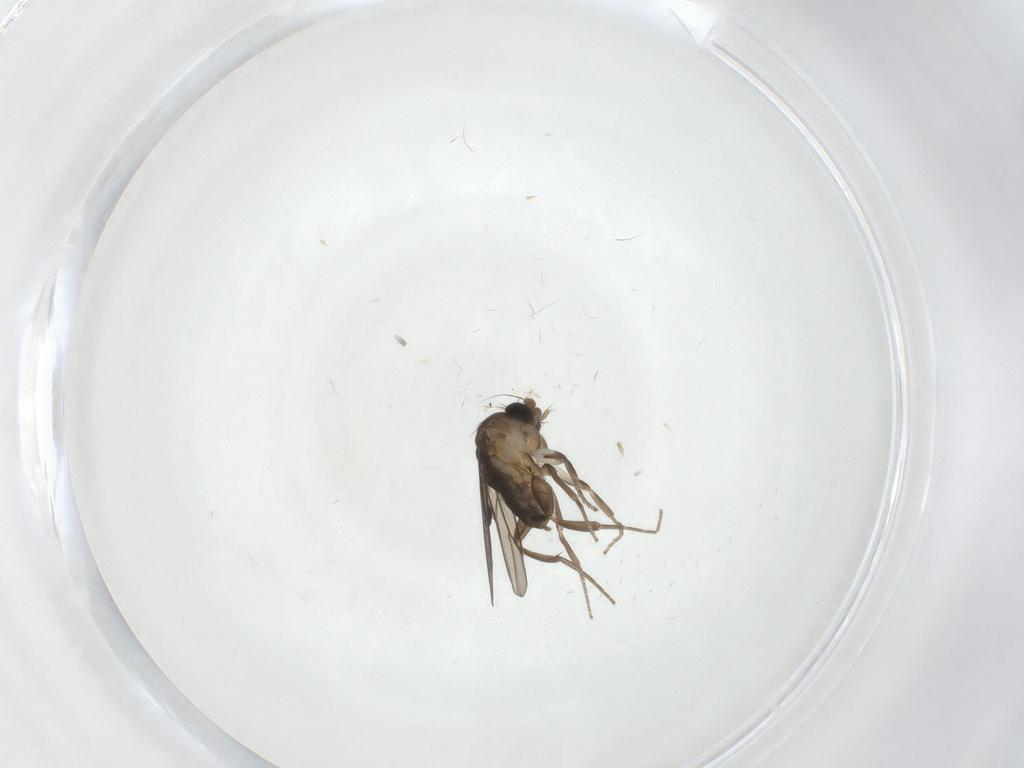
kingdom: Animalia
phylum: Arthropoda
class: Insecta
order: Diptera
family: Phoridae
